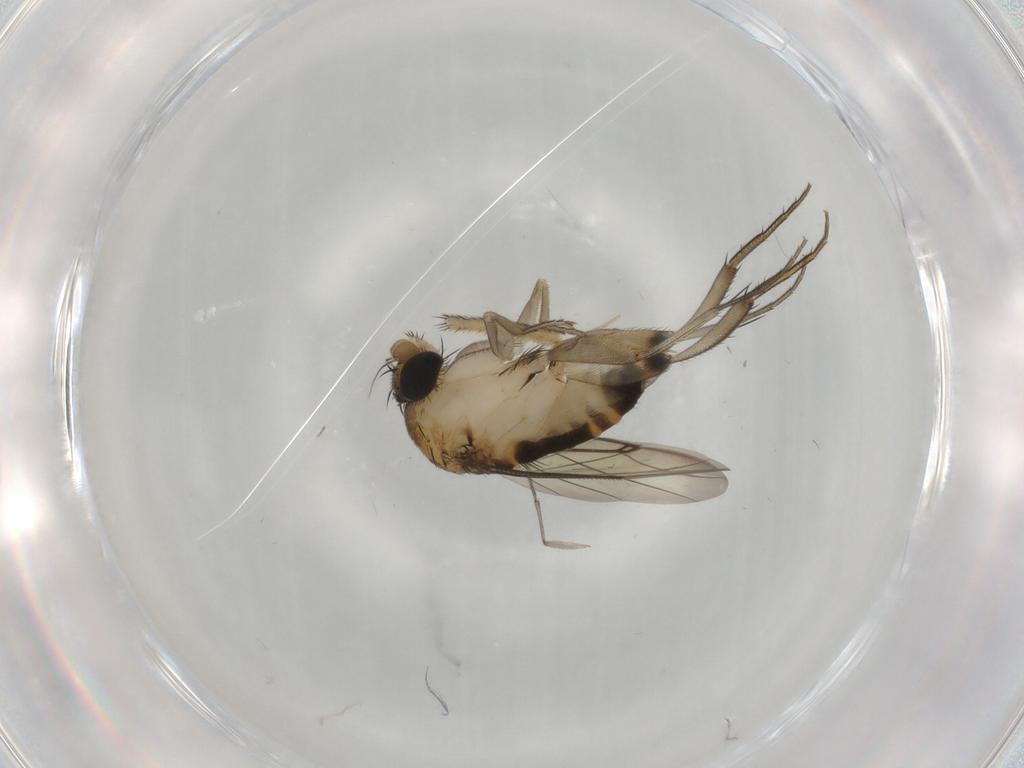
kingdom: Animalia
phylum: Arthropoda
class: Insecta
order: Diptera
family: Phoridae
